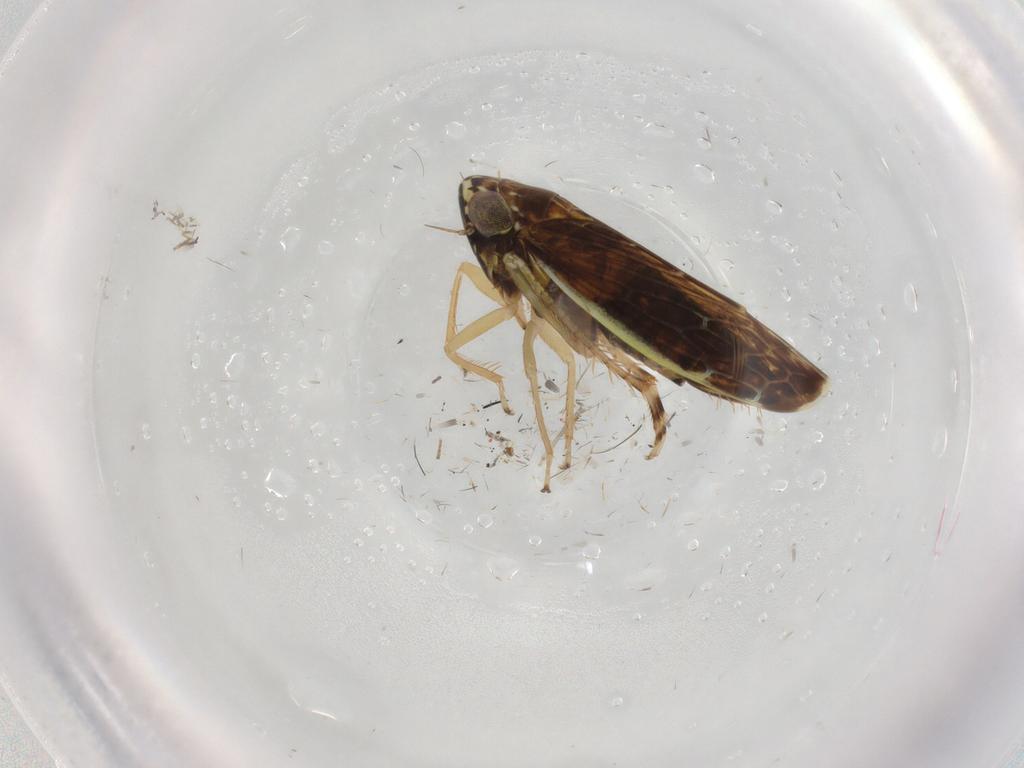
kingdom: Animalia
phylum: Arthropoda
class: Insecta
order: Hemiptera
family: Cicadellidae
